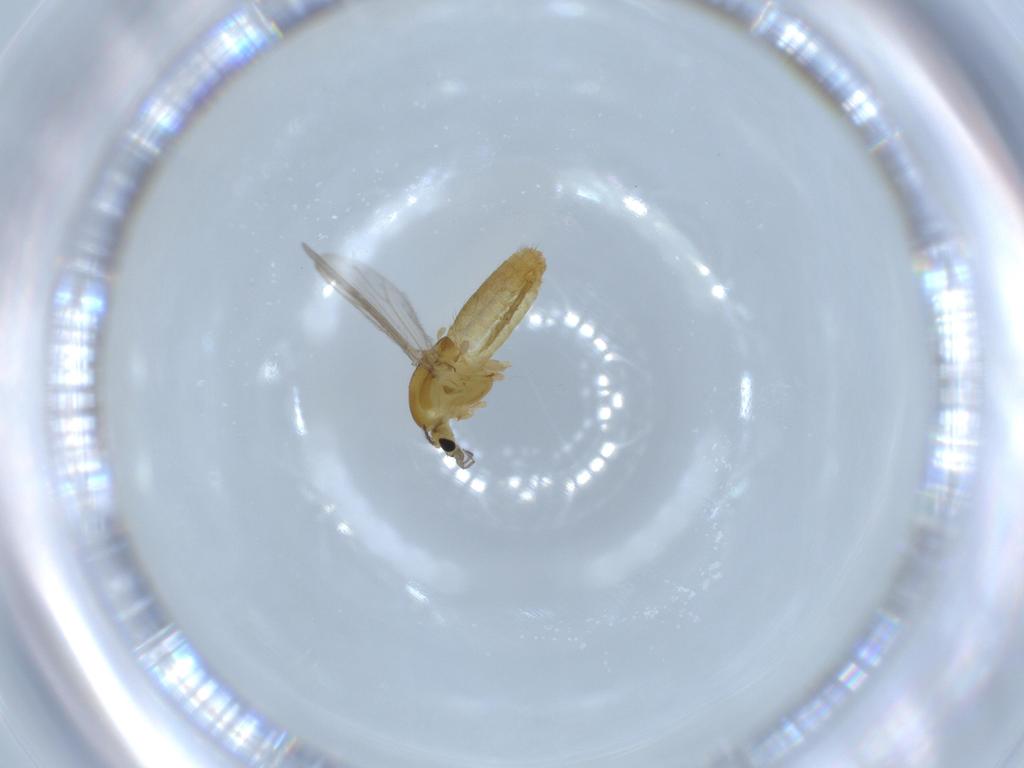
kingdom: Animalia
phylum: Arthropoda
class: Insecta
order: Diptera
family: Chironomidae
